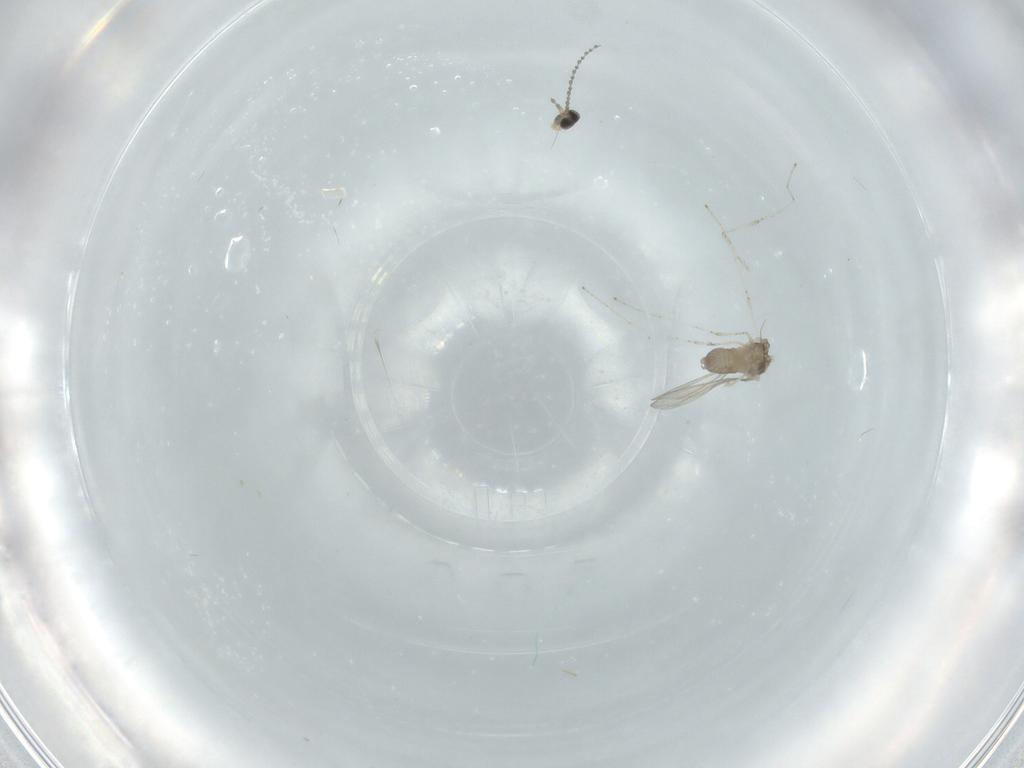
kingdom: Animalia
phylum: Arthropoda
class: Insecta
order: Diptera
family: Cecidomyiidae
